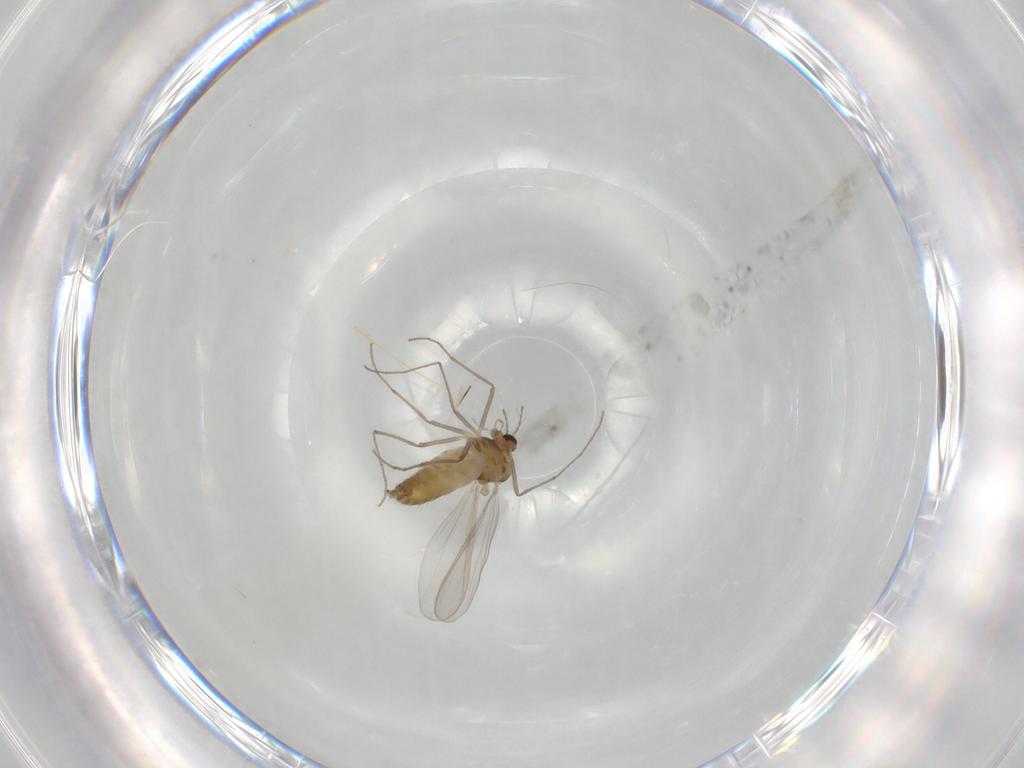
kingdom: Animalia
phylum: Arthropoda
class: Insecta
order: Diptera
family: Chironomidae
